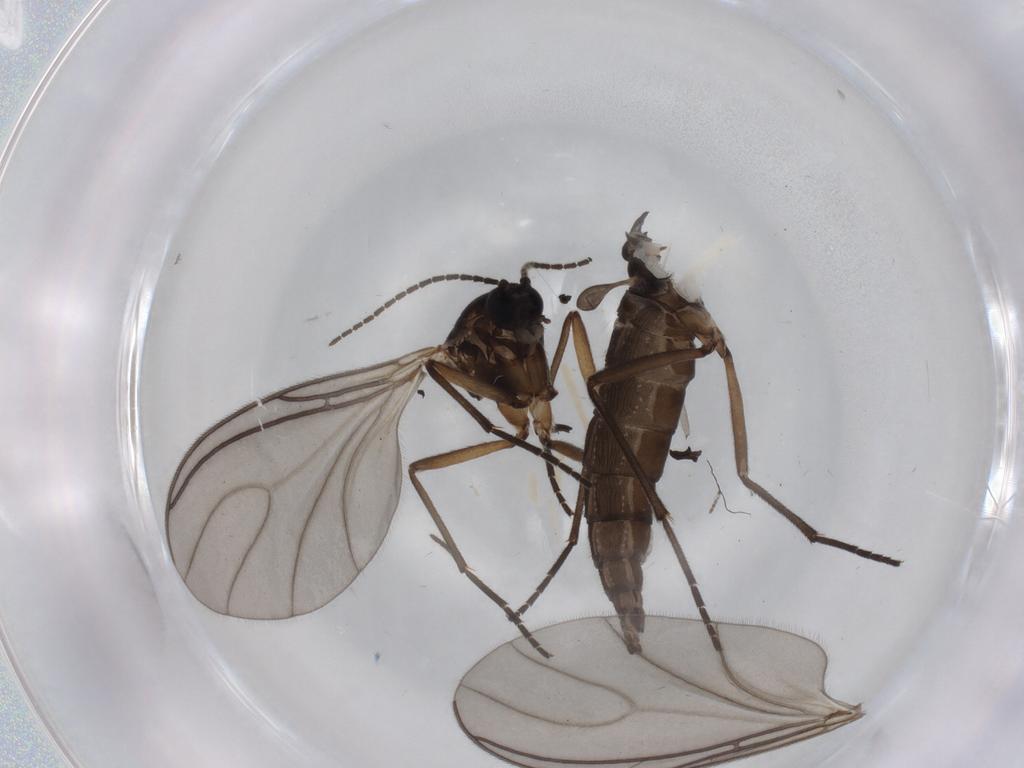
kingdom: Animalia
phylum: Arthropoda
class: Insecta
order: Diptera
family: Sciaridae
